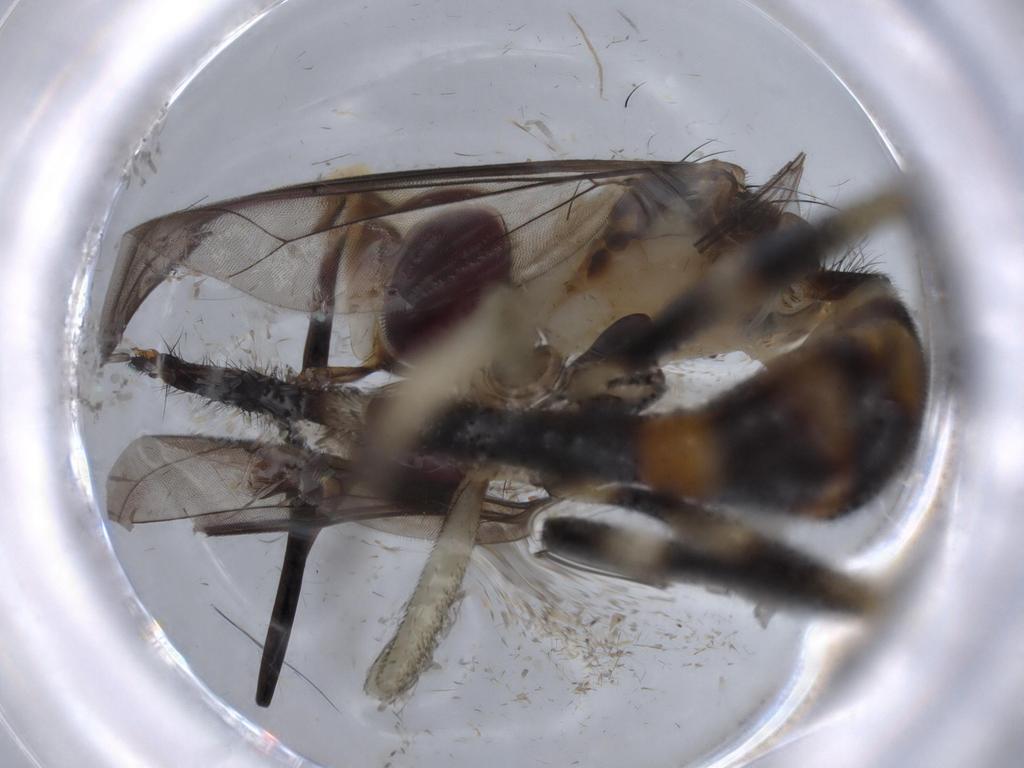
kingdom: Animalia
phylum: Arthropoda
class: Insecta
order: Diptera
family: Conopidae
